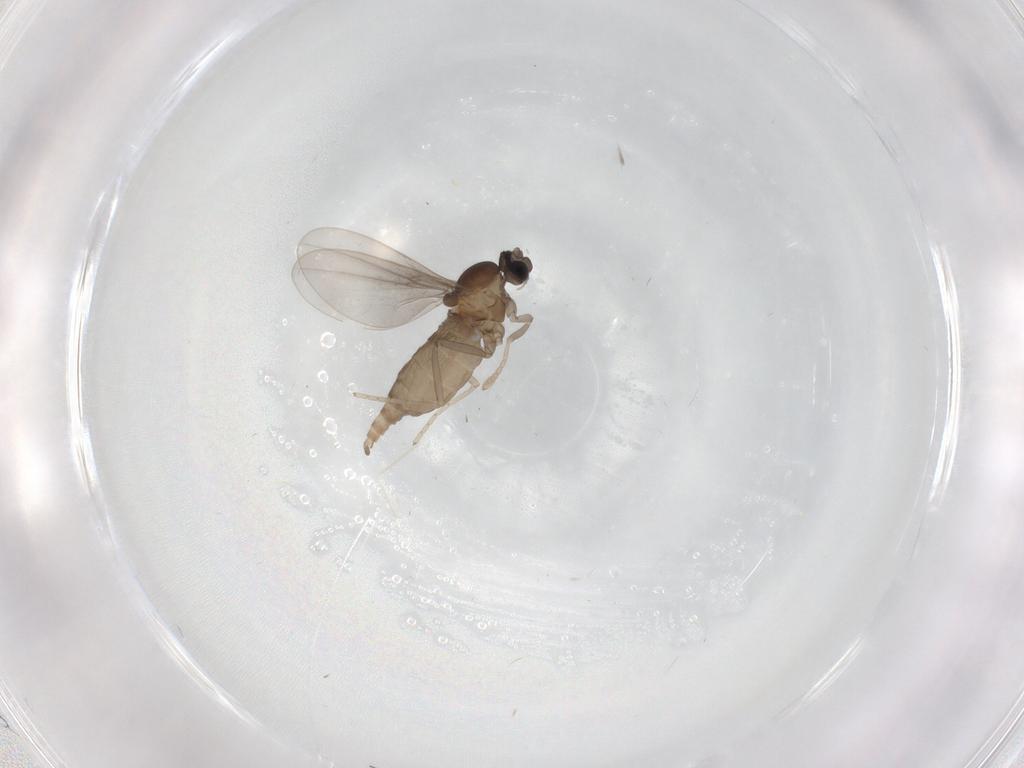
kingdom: Animalia
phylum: Arthropoda
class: Insecta
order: Diptera
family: Cecidomyiidae
